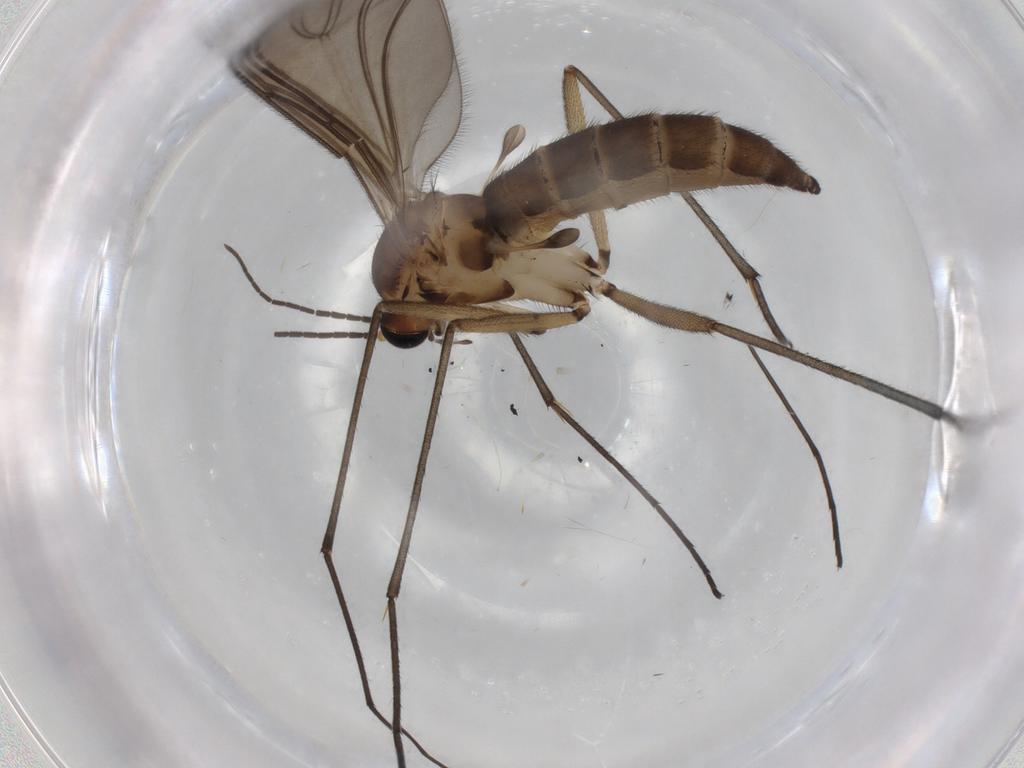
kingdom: Animalia
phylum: Arthropoda
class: Insecta
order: Diptera
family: Sciaridae
